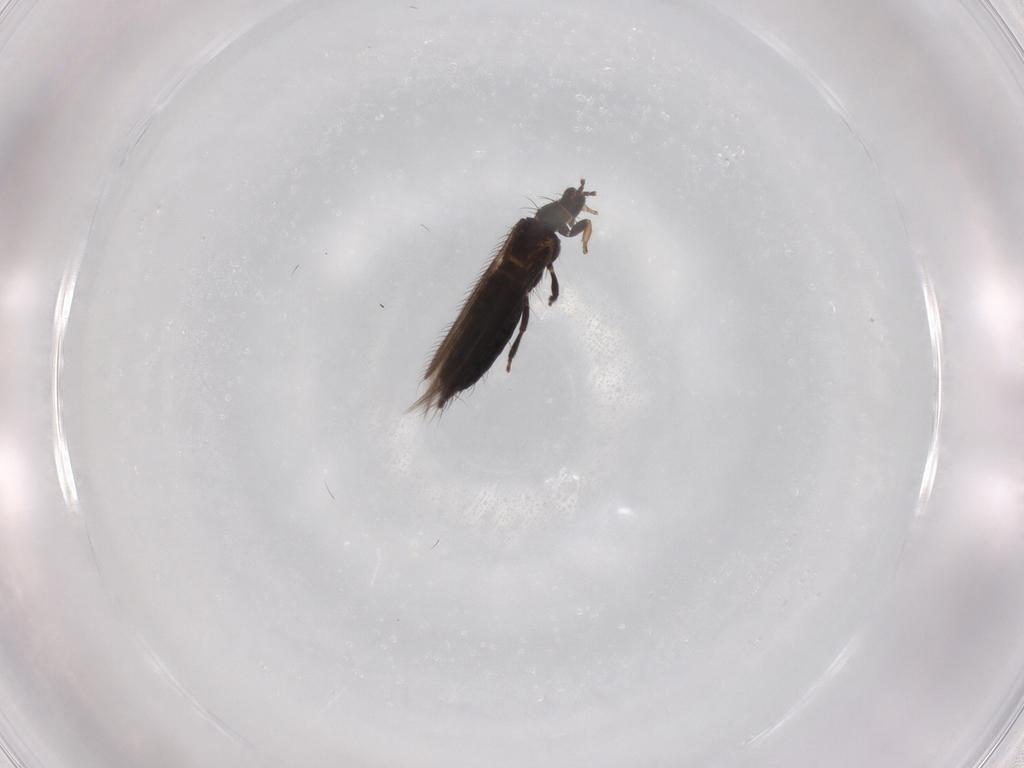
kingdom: Animalia
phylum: Arthropoda
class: Insecta
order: Thysanoptera
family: Thripidae
